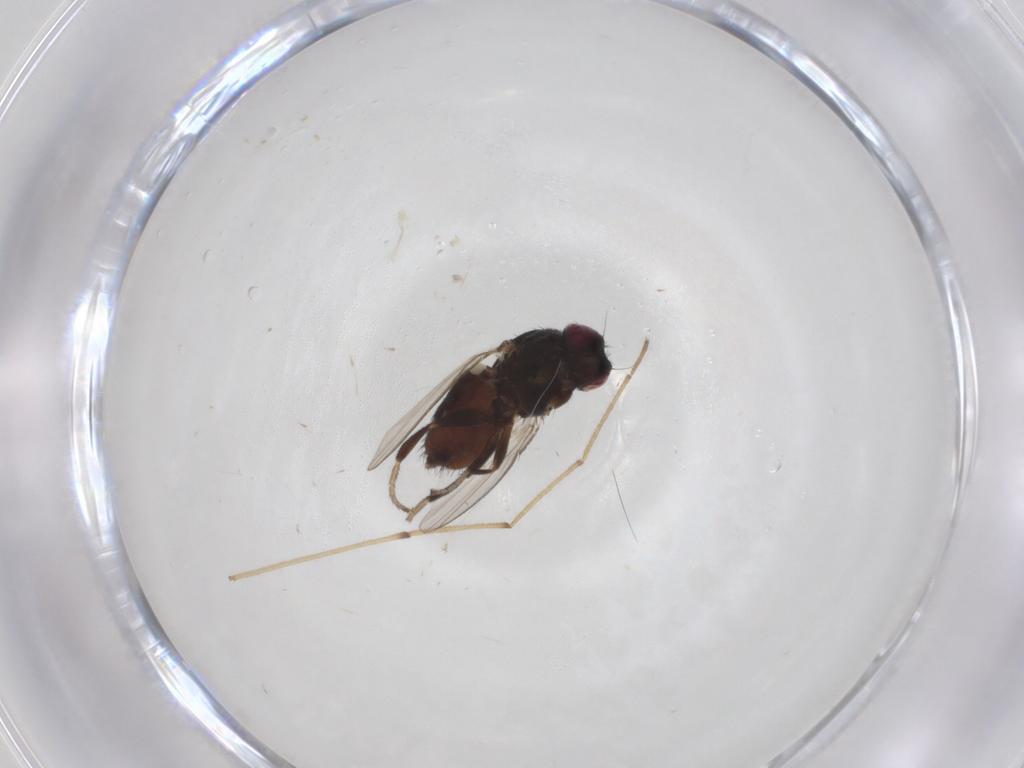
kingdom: Animalia
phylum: Arthropoda
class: Insecta
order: Diptera
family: Milichiidae
